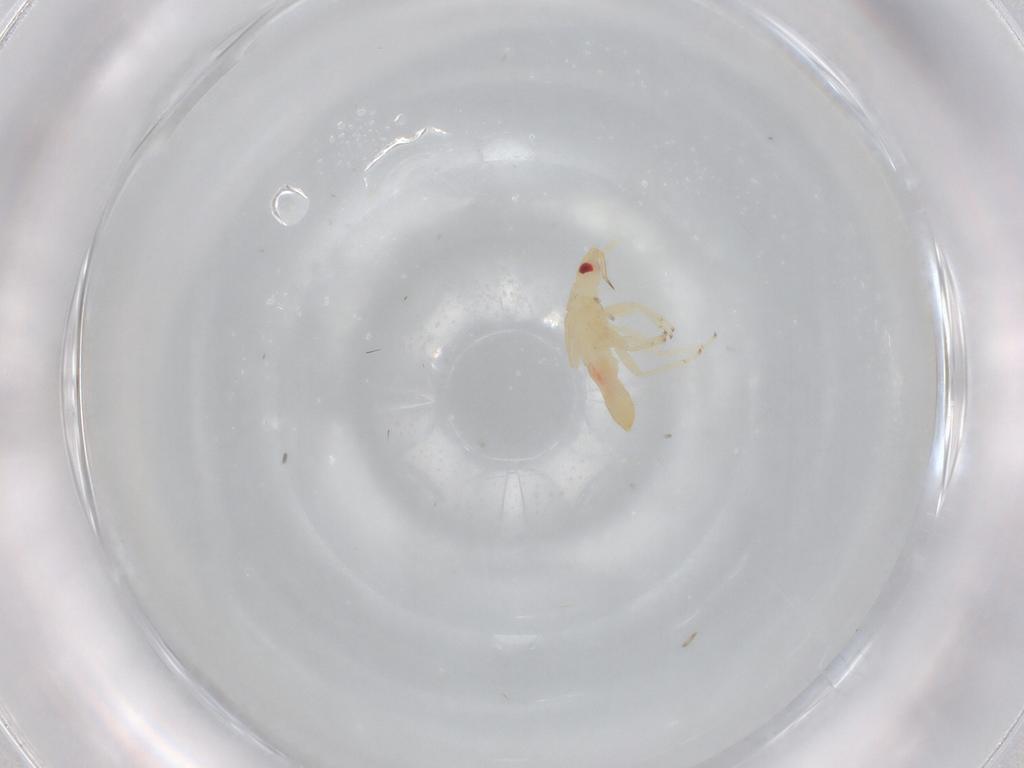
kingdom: Animalia
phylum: Arthropoda
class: Insecta
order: Hemiptera
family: Anthocoridae
